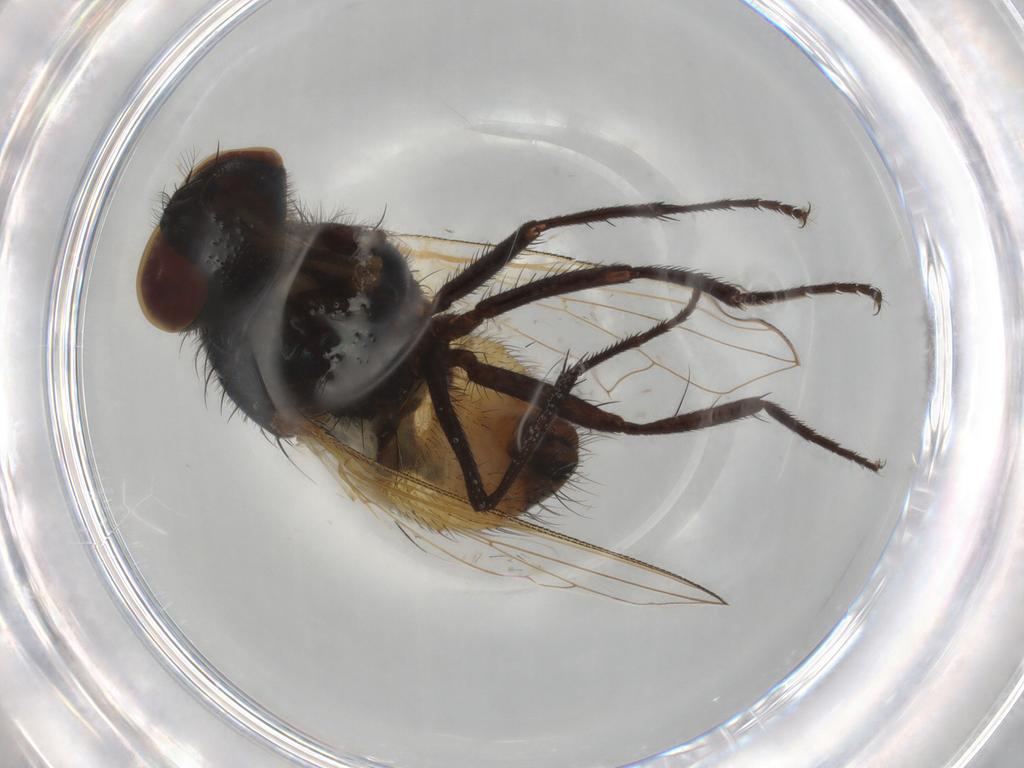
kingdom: Animalia
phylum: Arthropoda
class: Insecta
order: Diptera
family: Muscidae
